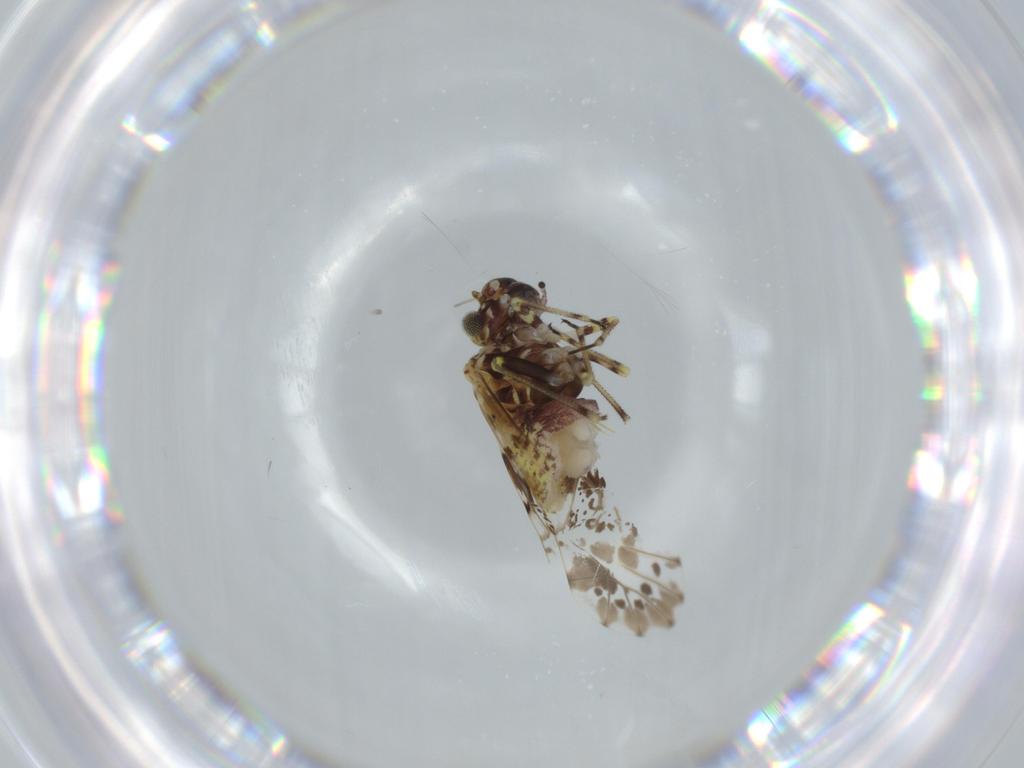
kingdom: Animalia
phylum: Arthropoda
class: Insecta
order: Psocodea
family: Psocidae
